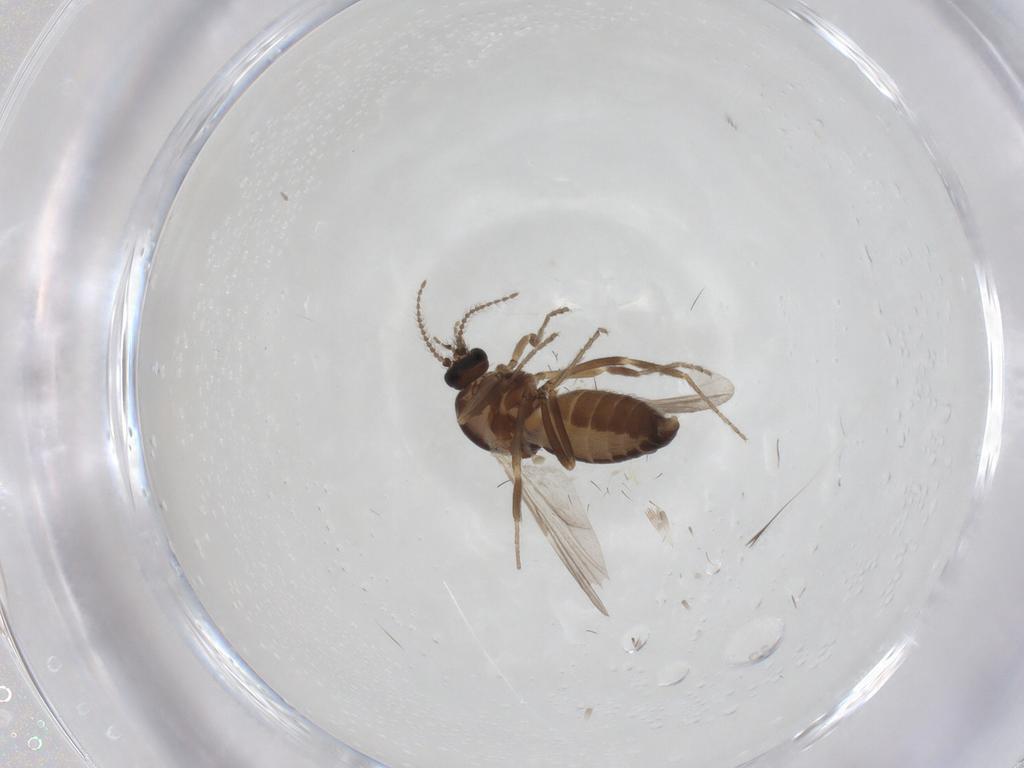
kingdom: Animalia
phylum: Arthropoda
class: Insecta
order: Diptera
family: Ceratopogonidae
